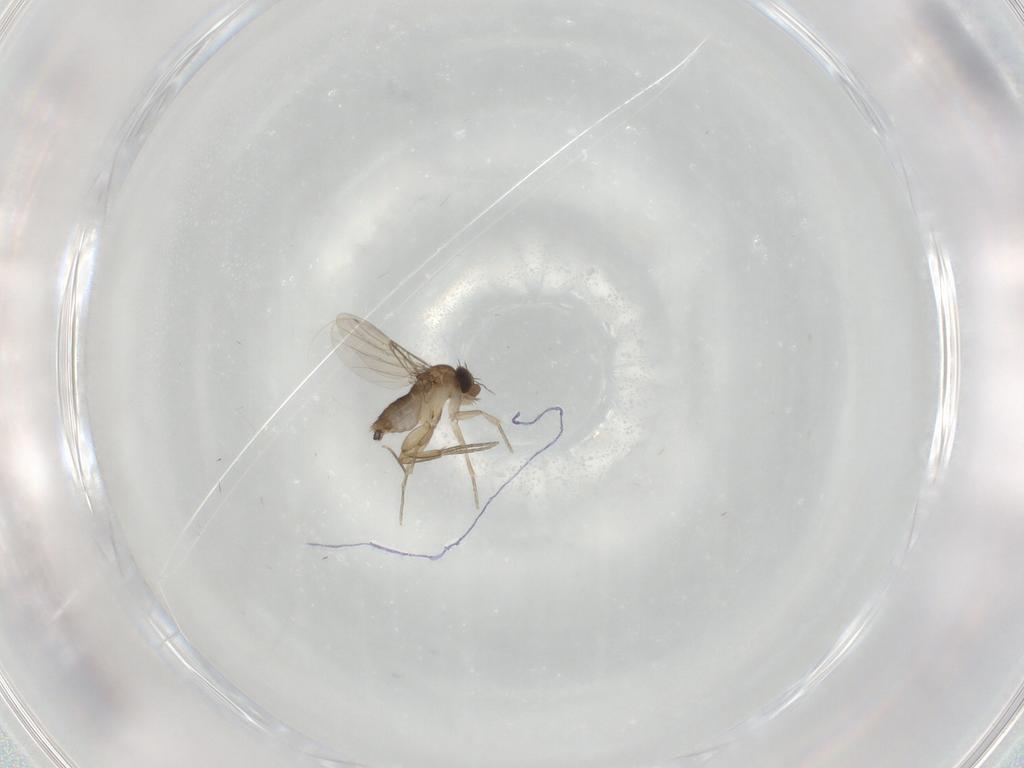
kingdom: Animalia
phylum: Arthropoda
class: Insecta
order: Diptera
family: Phoridae
